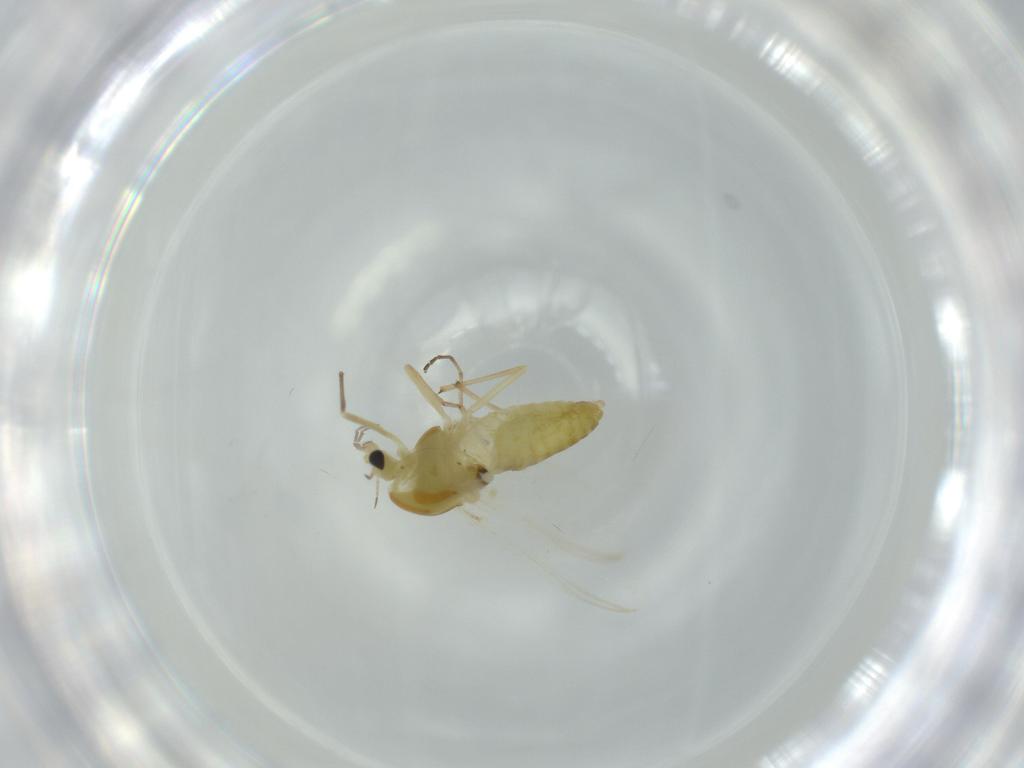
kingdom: Animalia
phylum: Arthropoda
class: Insecta
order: Diptera
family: Chironomidae
